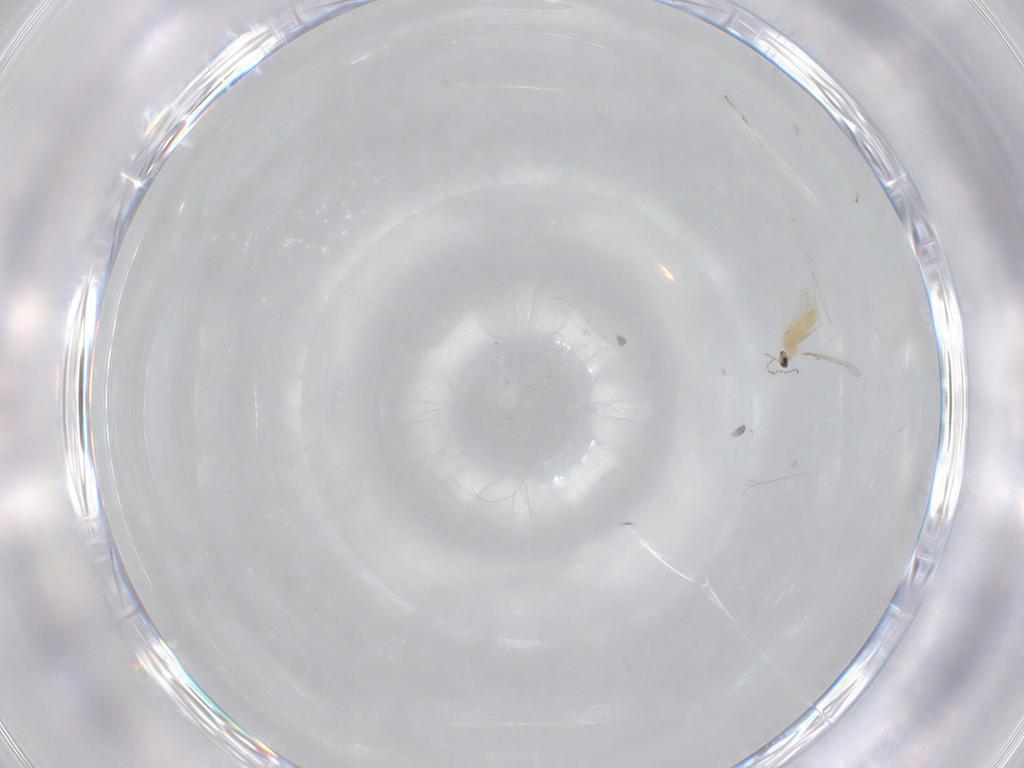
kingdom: Animalia
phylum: Arthropoda
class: Insecta
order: Diptera
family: Cecidomyiidae
